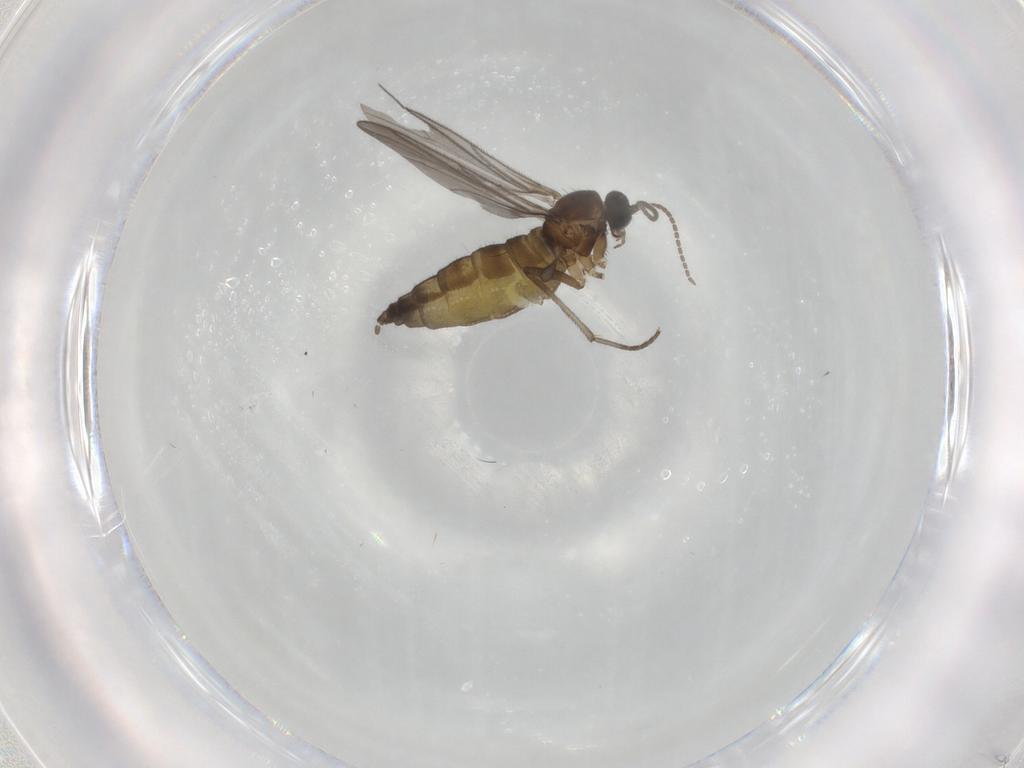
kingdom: Animalia
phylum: Arthropoda
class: Insecta
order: Diptera
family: Sciaridae
